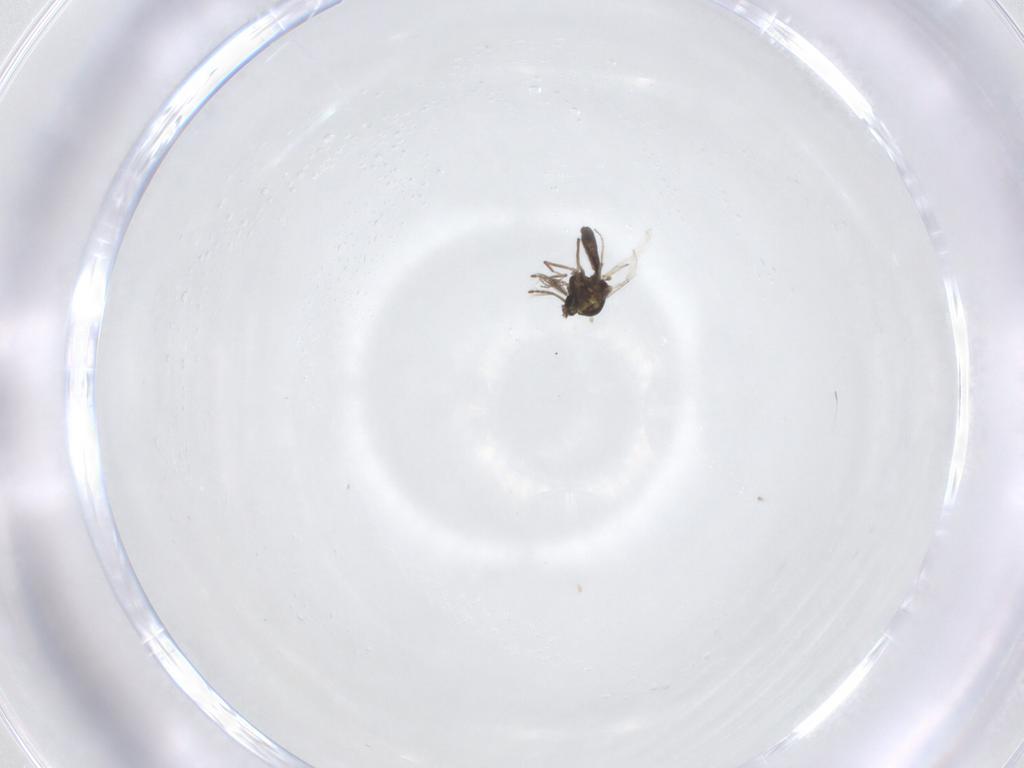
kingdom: Animalia
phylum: Arthropoda
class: Insecta
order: Diptera
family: Ceratopogonidae
